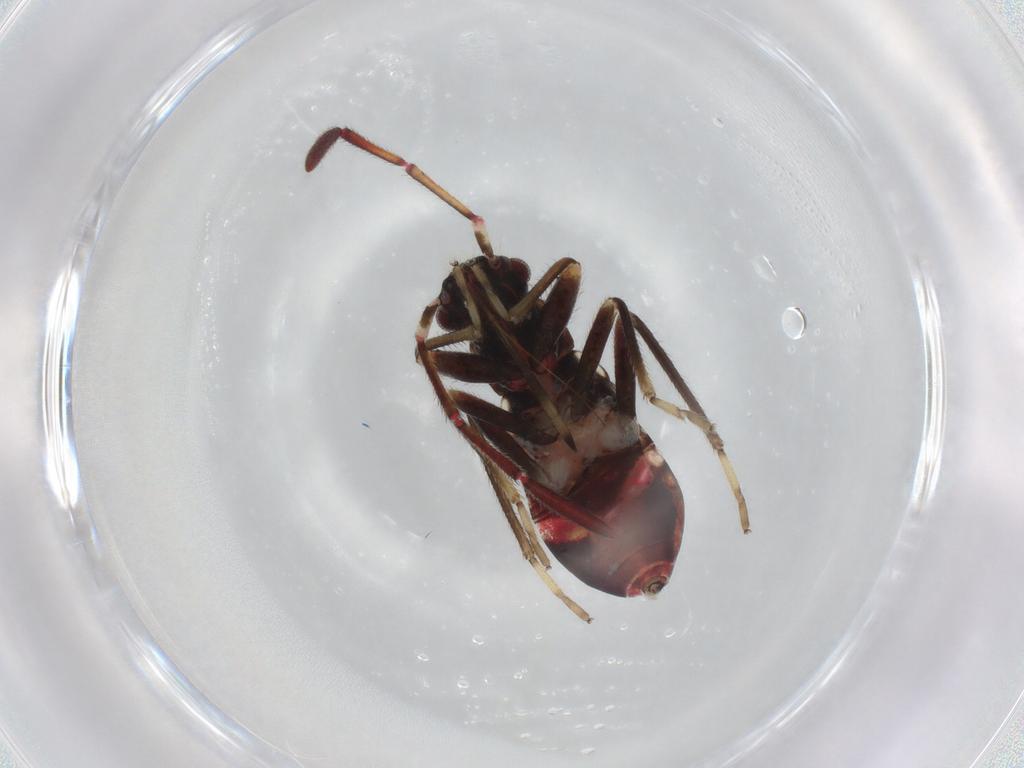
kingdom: Animalia
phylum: Arthropoda
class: Insecta
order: Hemiptera
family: Rhyparochromidae
